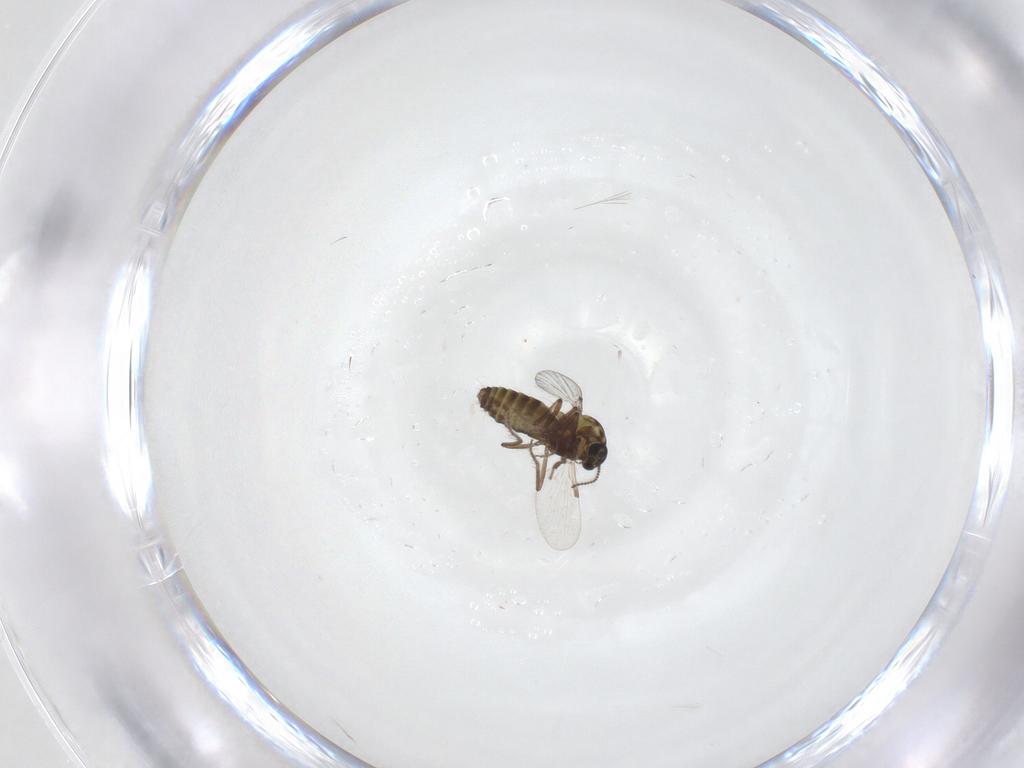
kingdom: Animalia
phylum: Arthropoda
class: Insecta
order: Diptera
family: Ceratopogonidae
